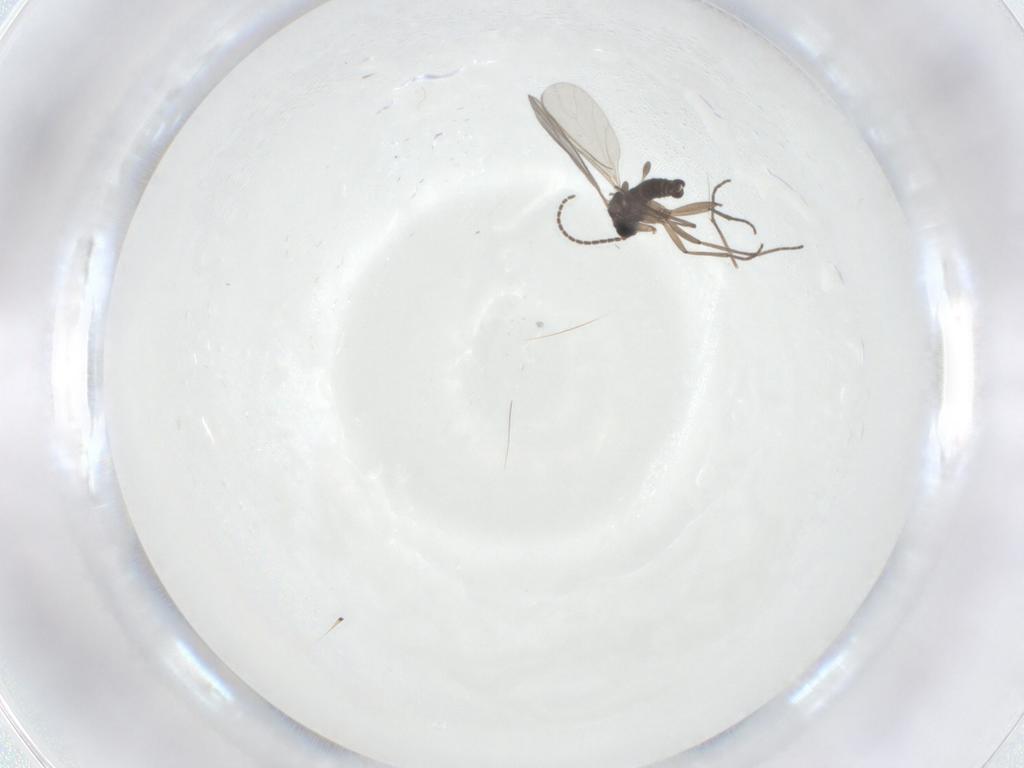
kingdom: Animalia
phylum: Arthropoda
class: Insecta
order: Diptera
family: Sciaridae
